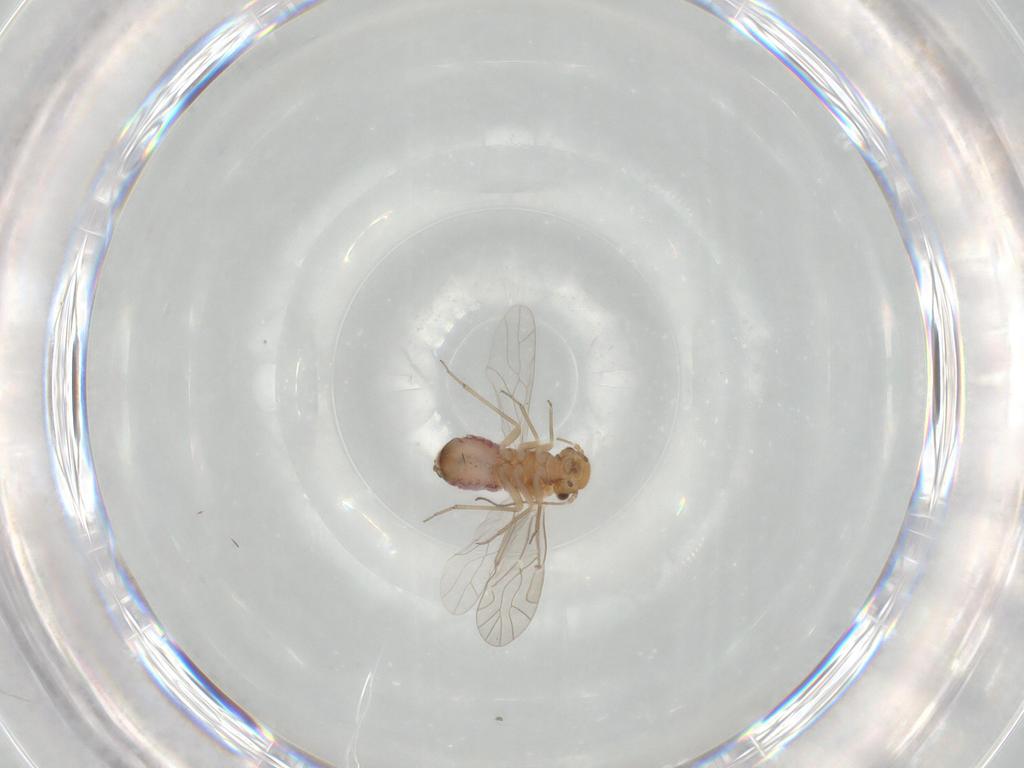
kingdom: Animalia
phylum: Arthropoda
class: Insecta
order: Psocodea
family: Lachesillidae
